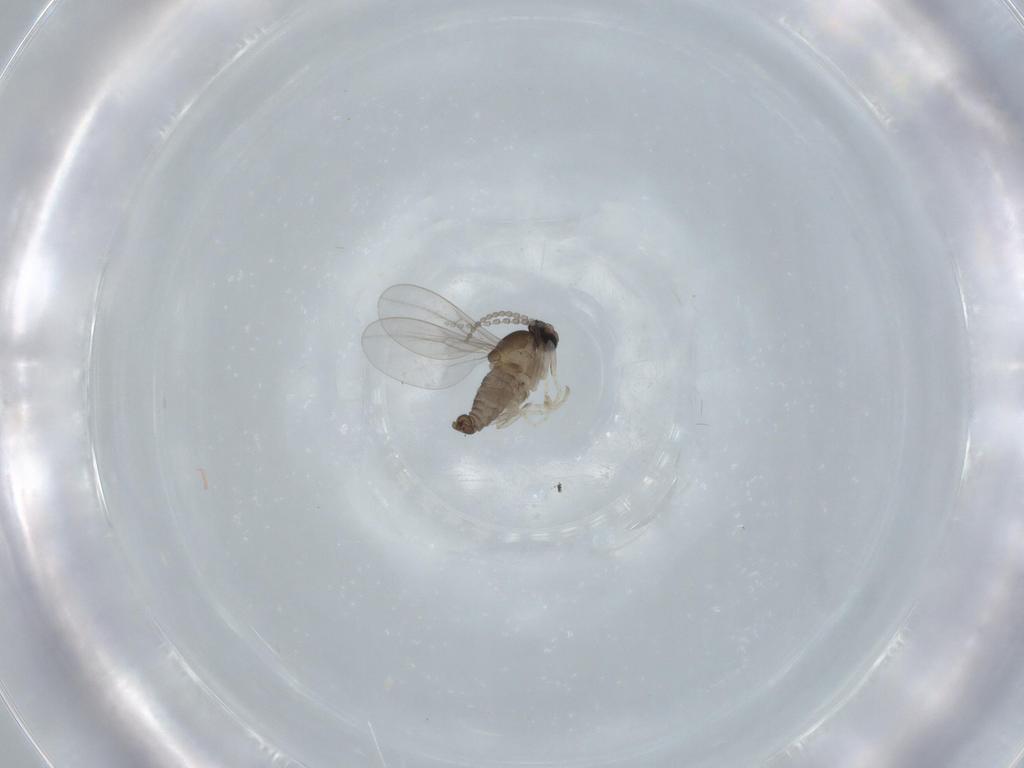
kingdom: Animalia
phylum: Arthropoda
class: Insecta
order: Diptera
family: Cecidomyiidae
